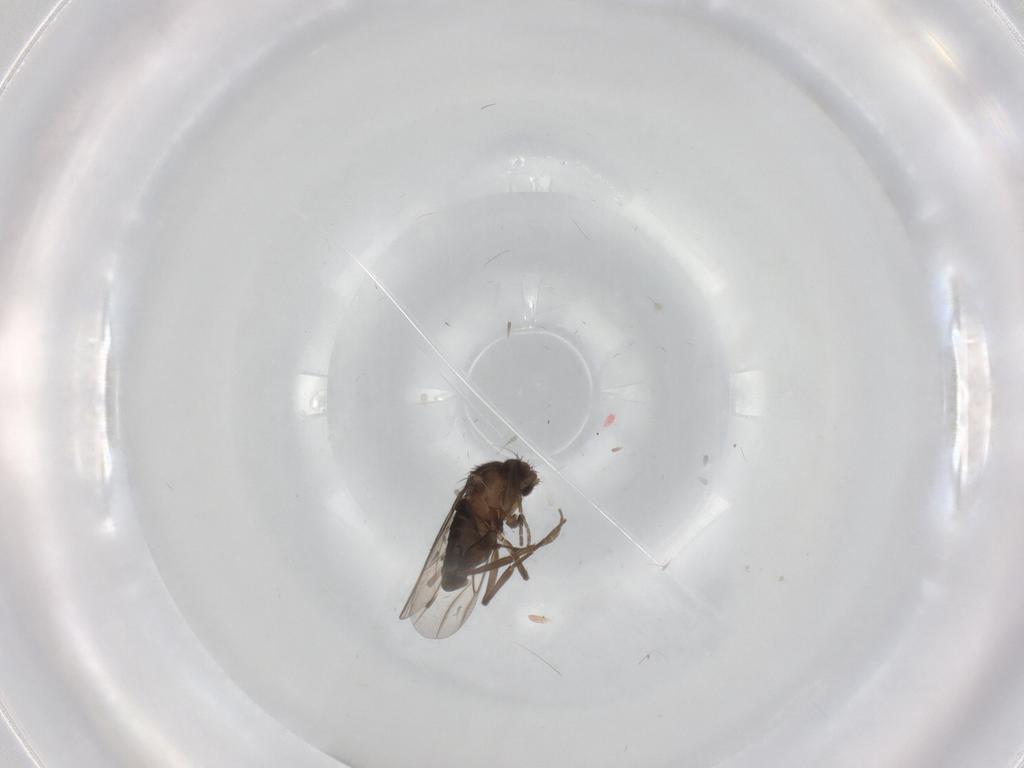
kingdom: Animalia
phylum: Arthropoda
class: Insecta
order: Diptera
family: Phoridae
